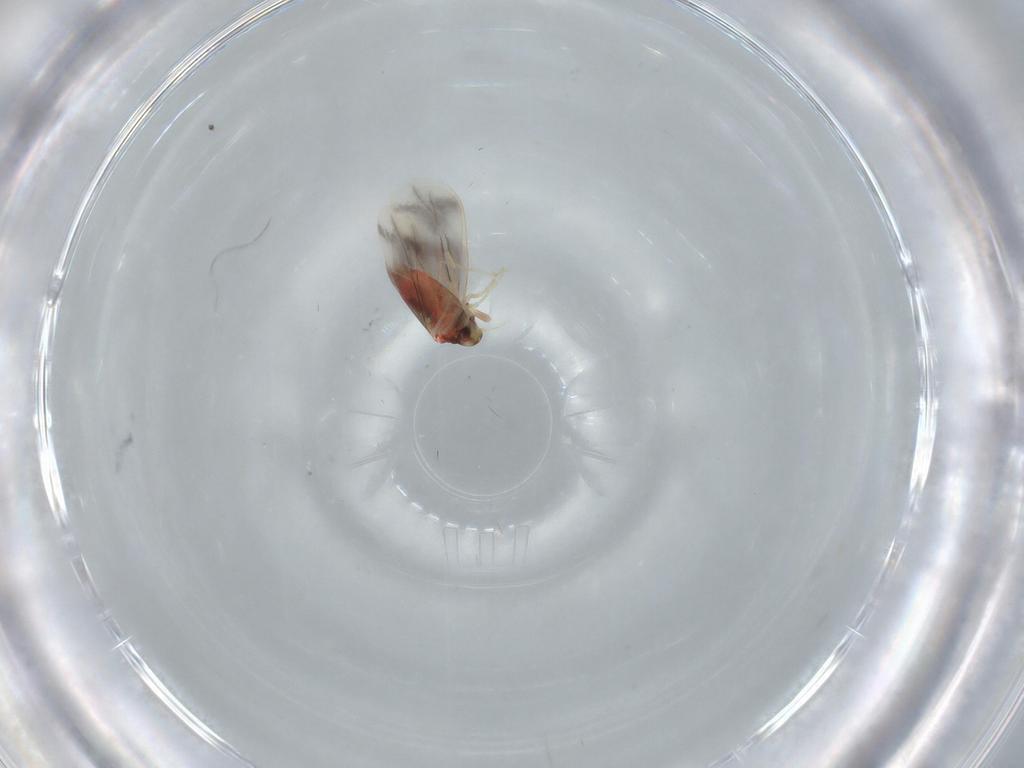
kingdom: Animalia
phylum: Arthropoda
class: Insecta
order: Hemiptera
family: Aleyrodidae
